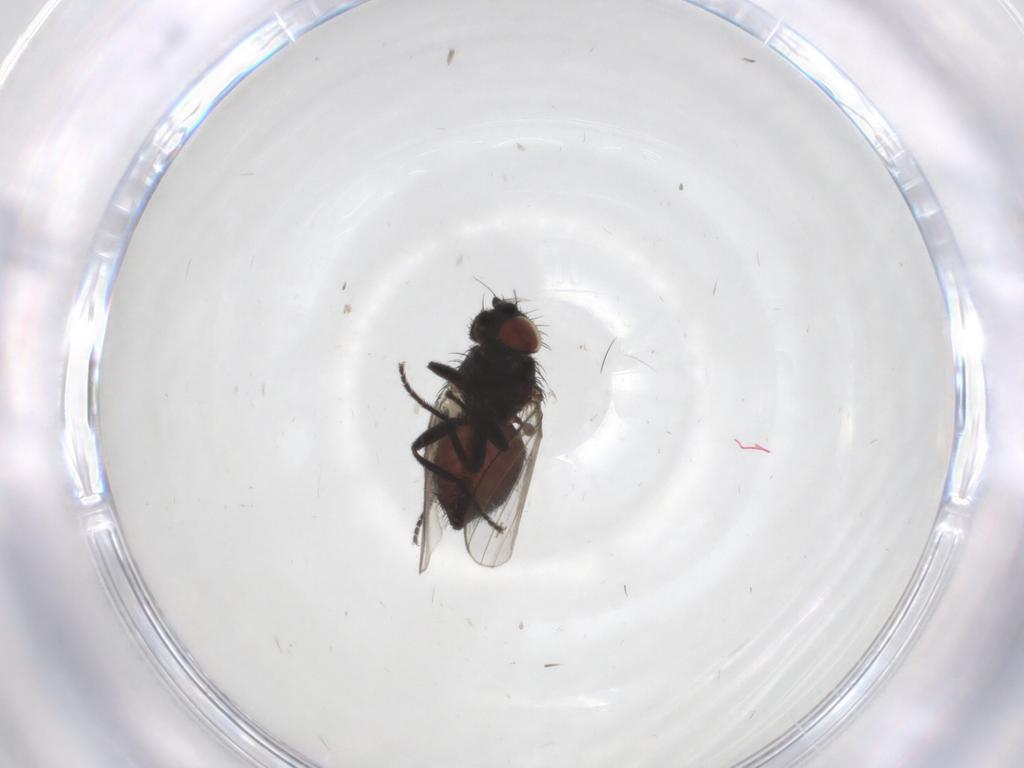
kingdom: Animalia
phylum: Arthropoda
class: Insecta
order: Diptera
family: Milichiidae
